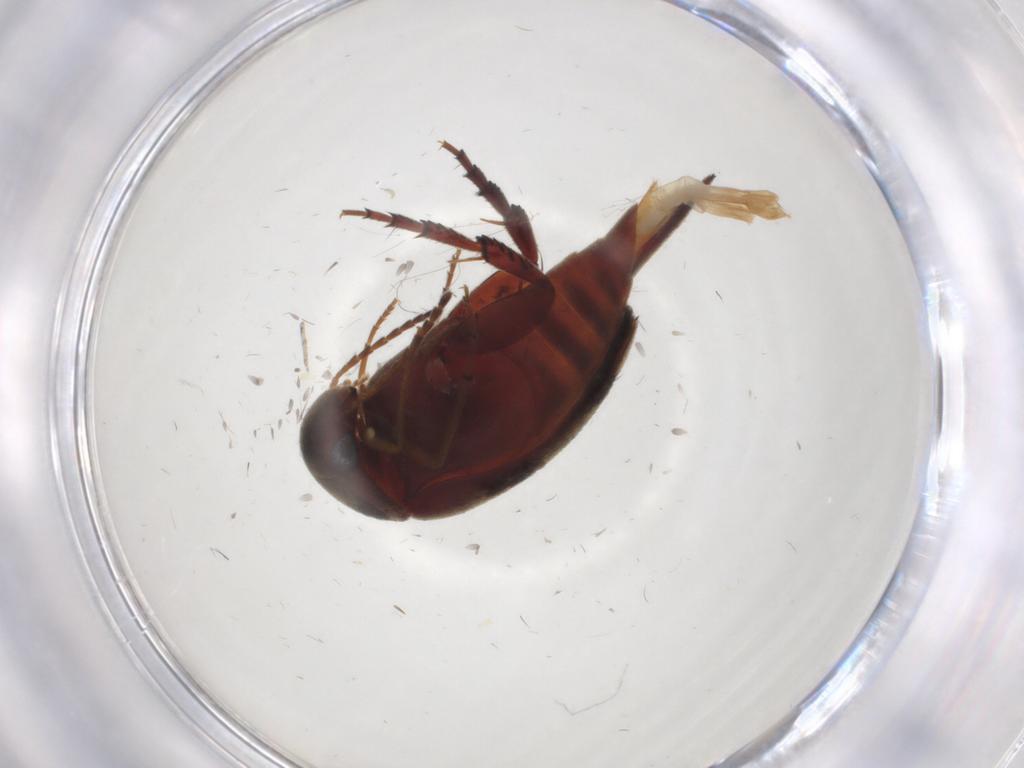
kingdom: Animalia
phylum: Arthropoda
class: Insecta
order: Coleoptera
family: Mordellidae
